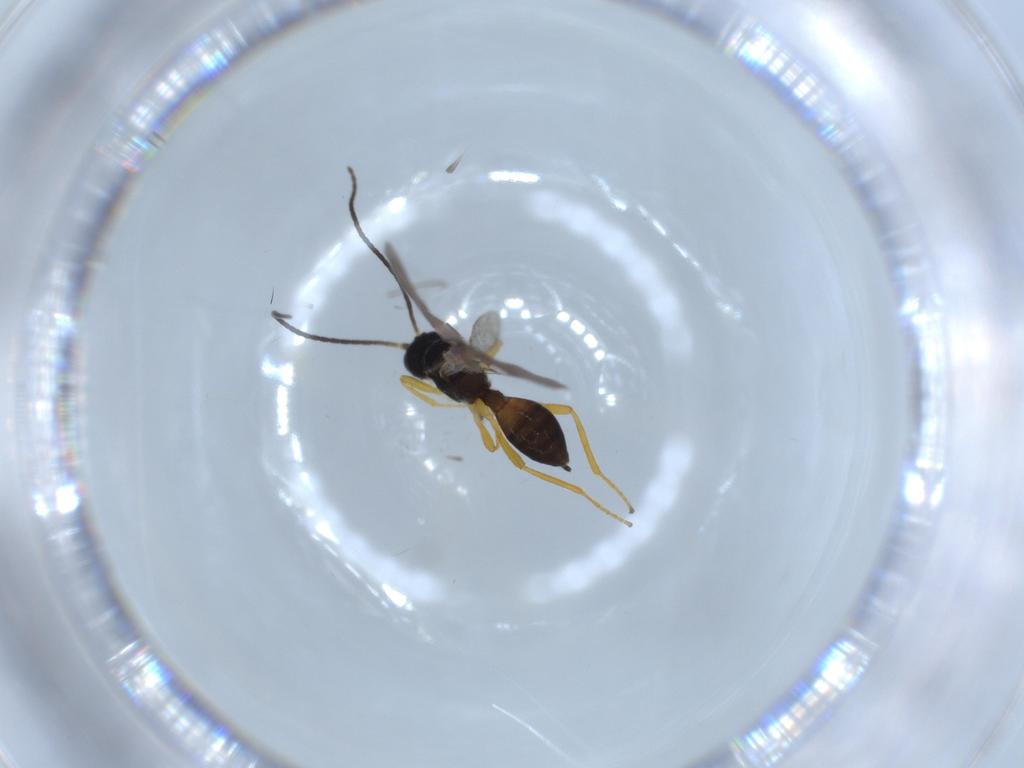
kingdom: Animalia
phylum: Arthropoda
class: Insecta
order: Hymenoptera
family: Braconidae
